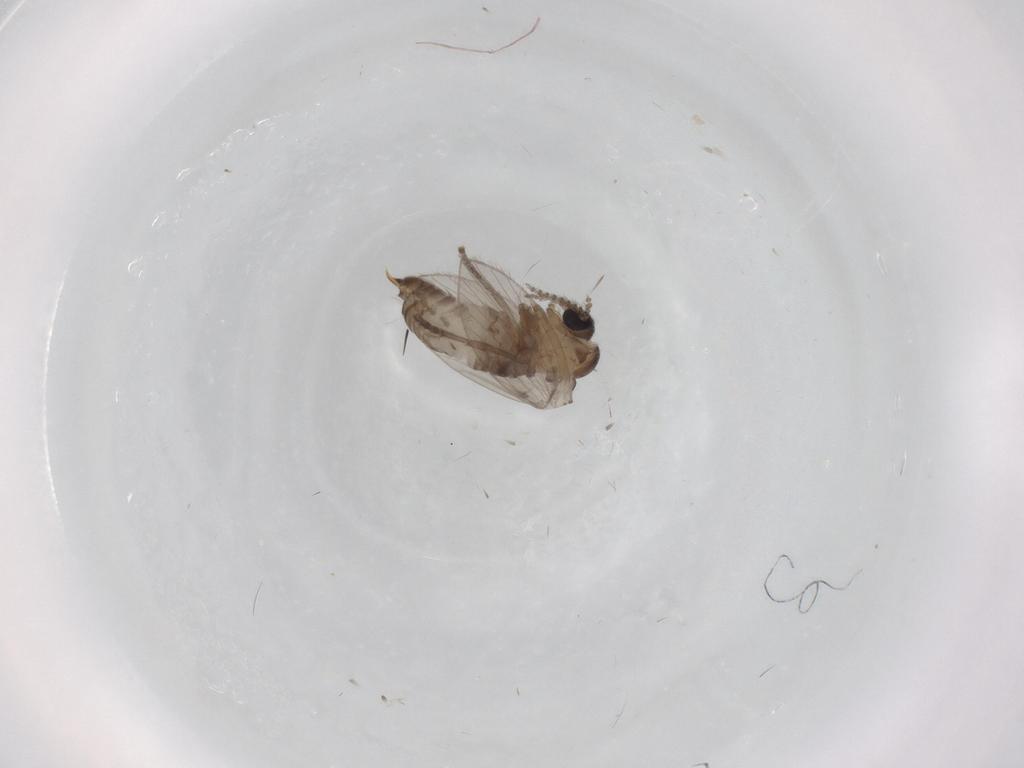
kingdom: Animalia
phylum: Arthropoda
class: Insecta
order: Diptera
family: Psychodidae
